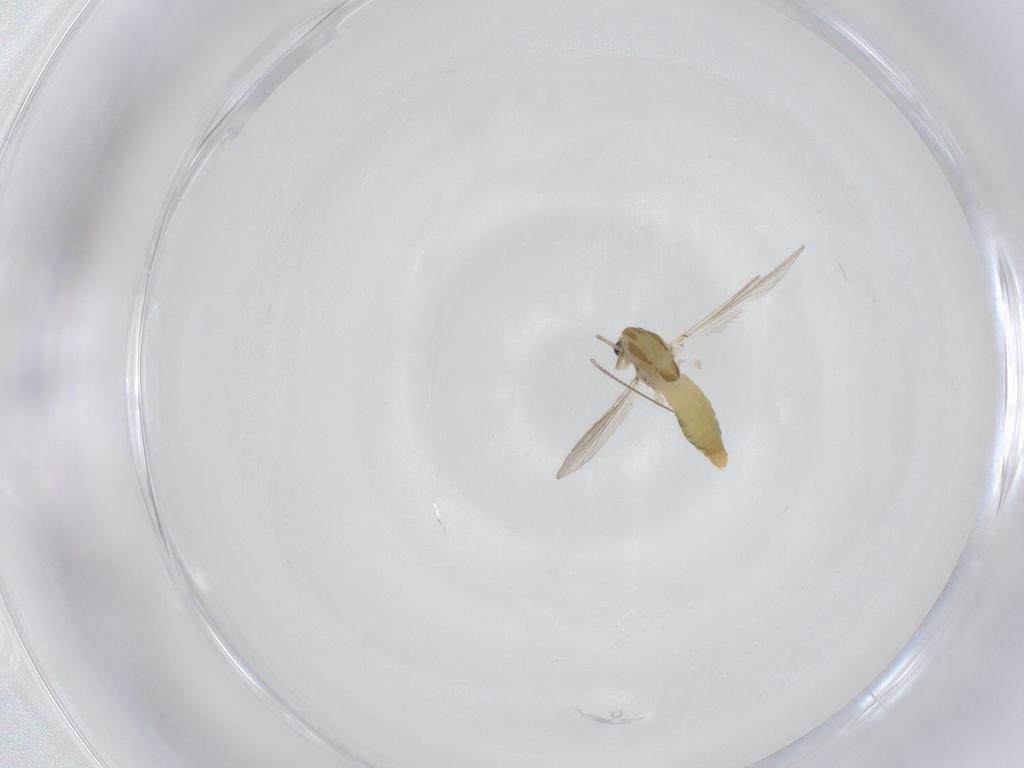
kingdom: Animalia
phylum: Arthropoda
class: Insecta
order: Diptera
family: Chironomidae
